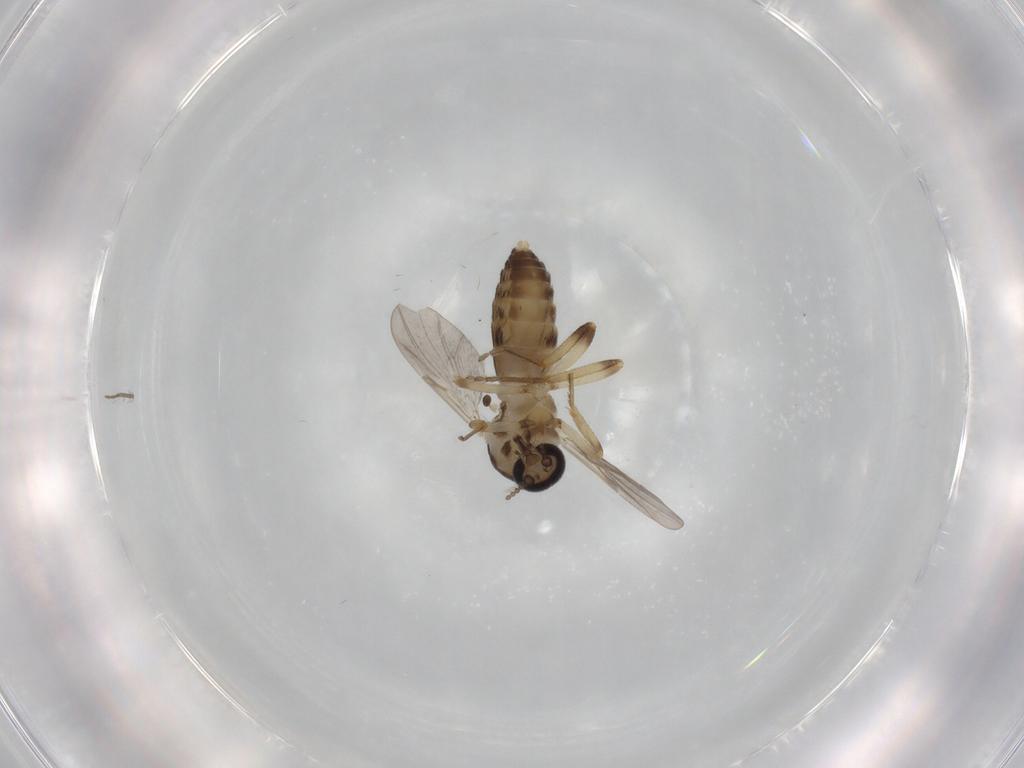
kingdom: Animalia
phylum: Arthropoda
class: Insecta
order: Diptera
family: Ceratopogonidae
